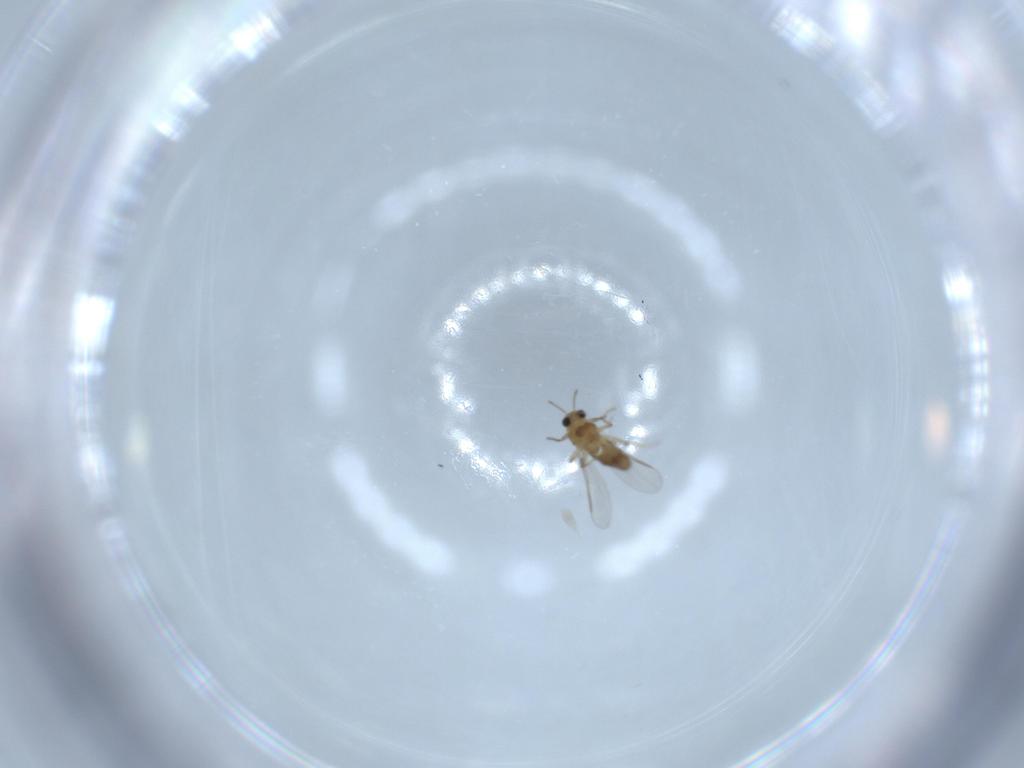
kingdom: Animalia
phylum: Arthropoda
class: Insecta
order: Diptera
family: Chironomidae
